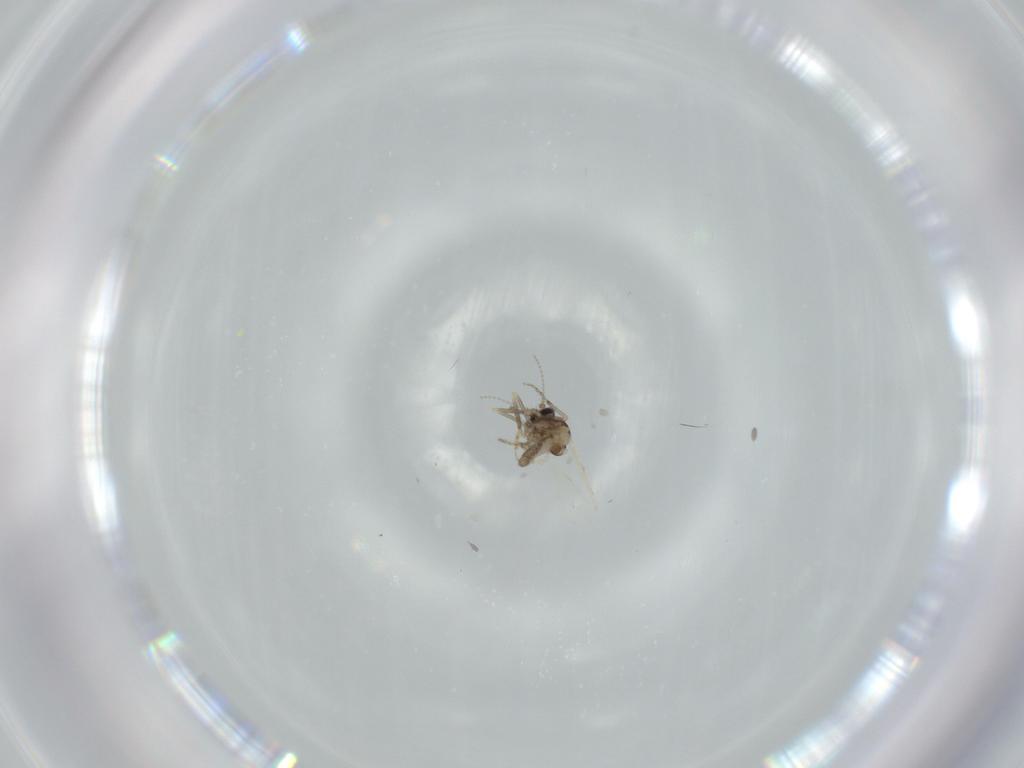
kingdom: Animalia
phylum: Arthropoda
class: Insecta
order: Diptera
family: Ceratopogonidae
